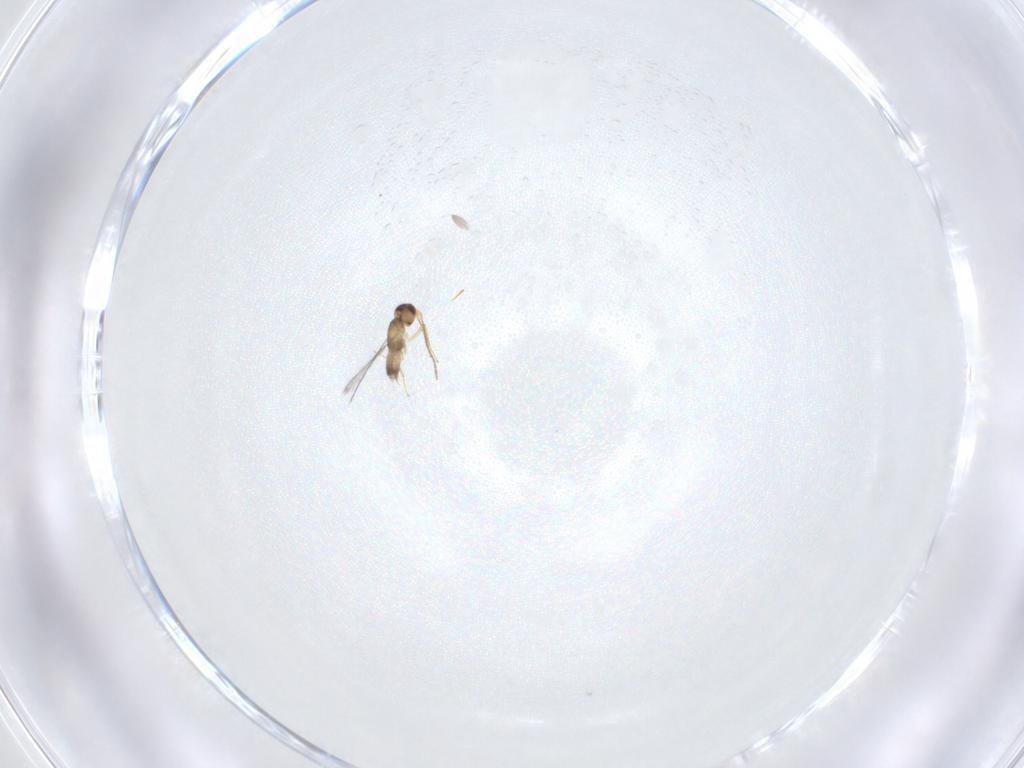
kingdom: Animalia
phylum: Arthropoda
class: Insecta
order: Hymenoptera
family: Mymaridae
